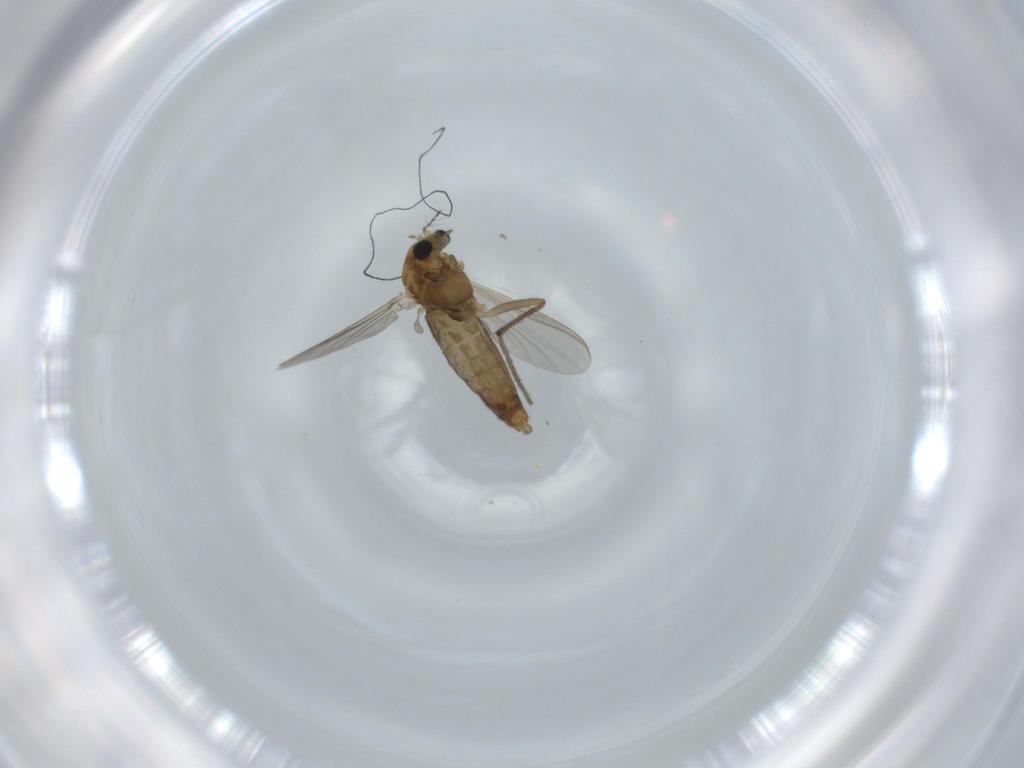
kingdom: Animalia
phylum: Arthropoda
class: Insecta
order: Diptera
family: Chironomidae
